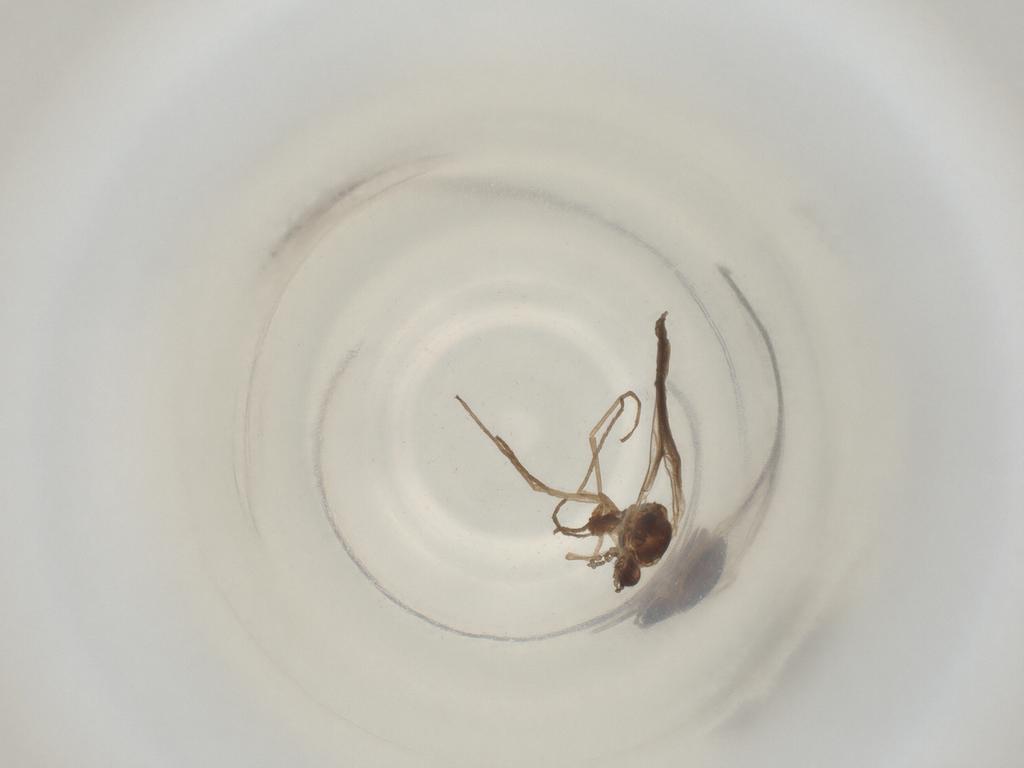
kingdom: Animalia
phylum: Arthropoda
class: Insecta
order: Diptera
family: Cecidomyiidae
